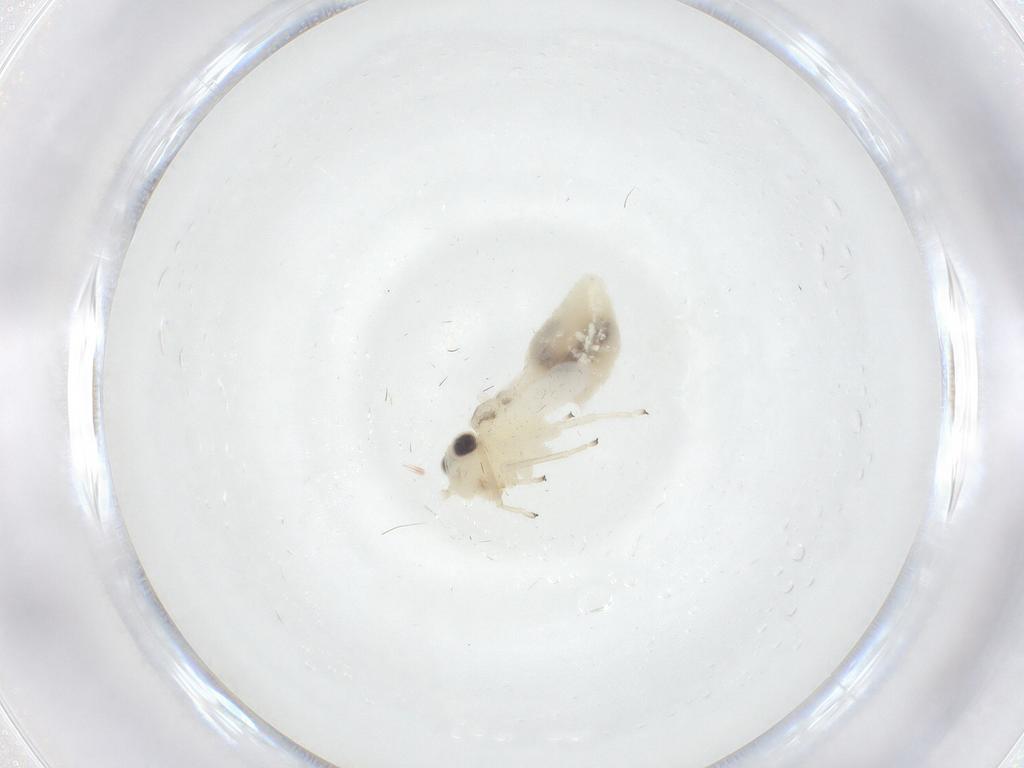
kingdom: Animalia
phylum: Arthropoda
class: Insecta
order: Psocodea
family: Caeciliusidae
